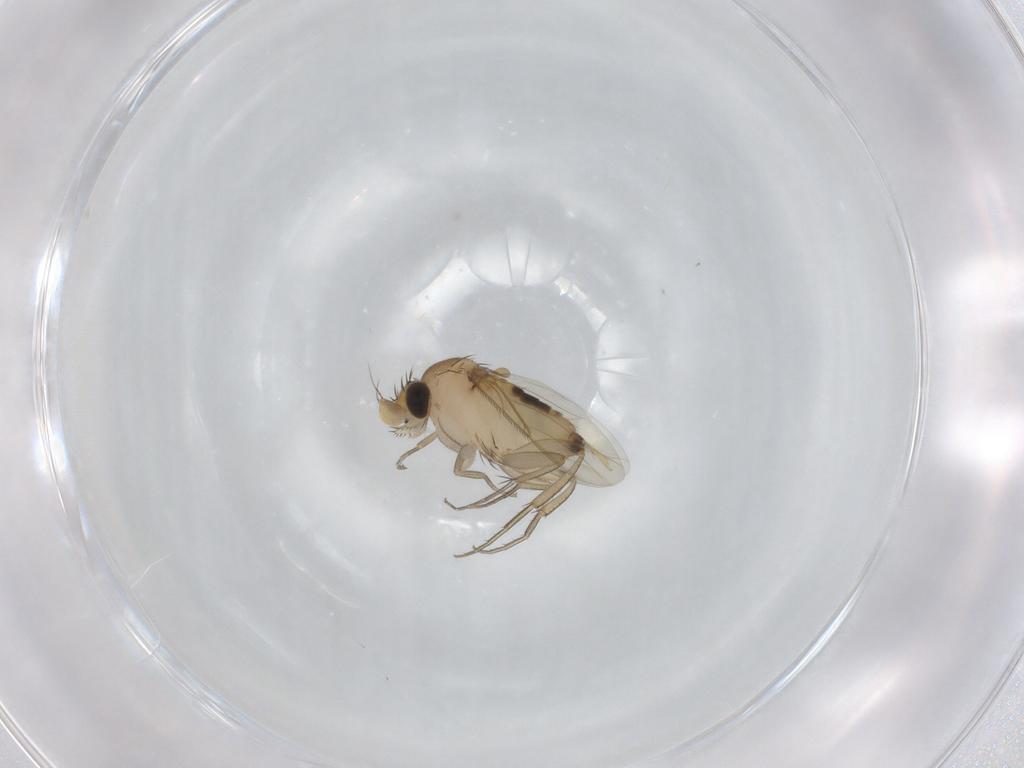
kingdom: Animalia
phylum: Arthropoda
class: Insecta
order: Diptera
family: Phoridae
